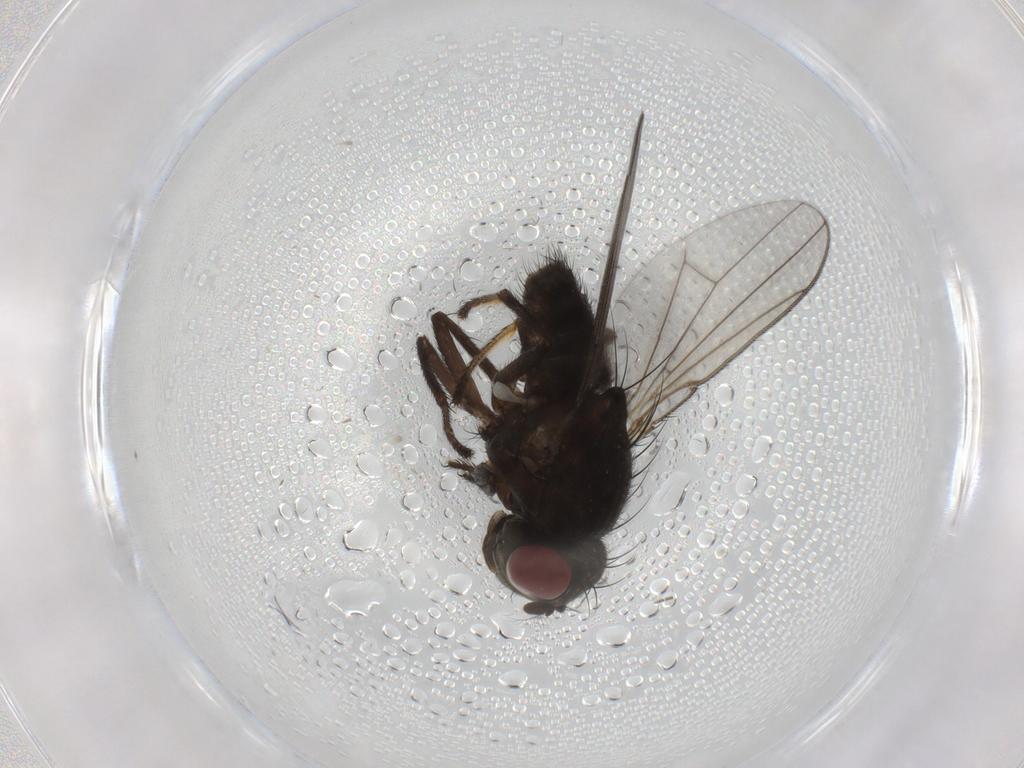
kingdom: Animalia
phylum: Arthropoda
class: Insecta
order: Diptera
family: Ephydridae
